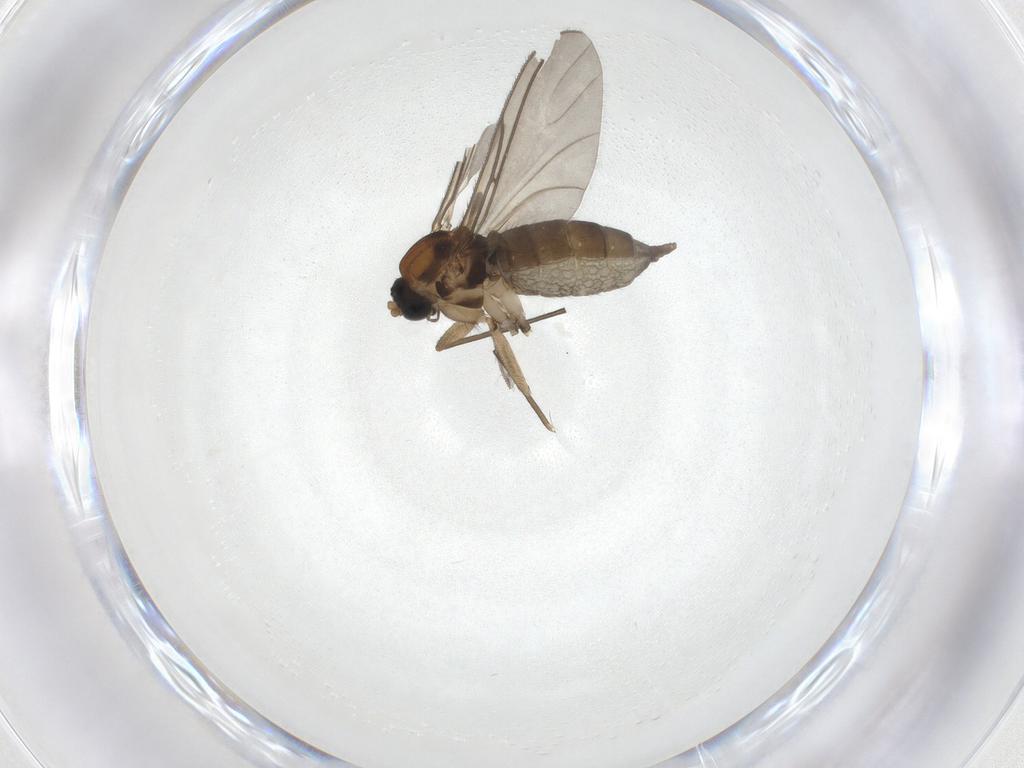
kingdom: Animalia
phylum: Arthropoda
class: Insecta
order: Diptera
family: Sciaridae
